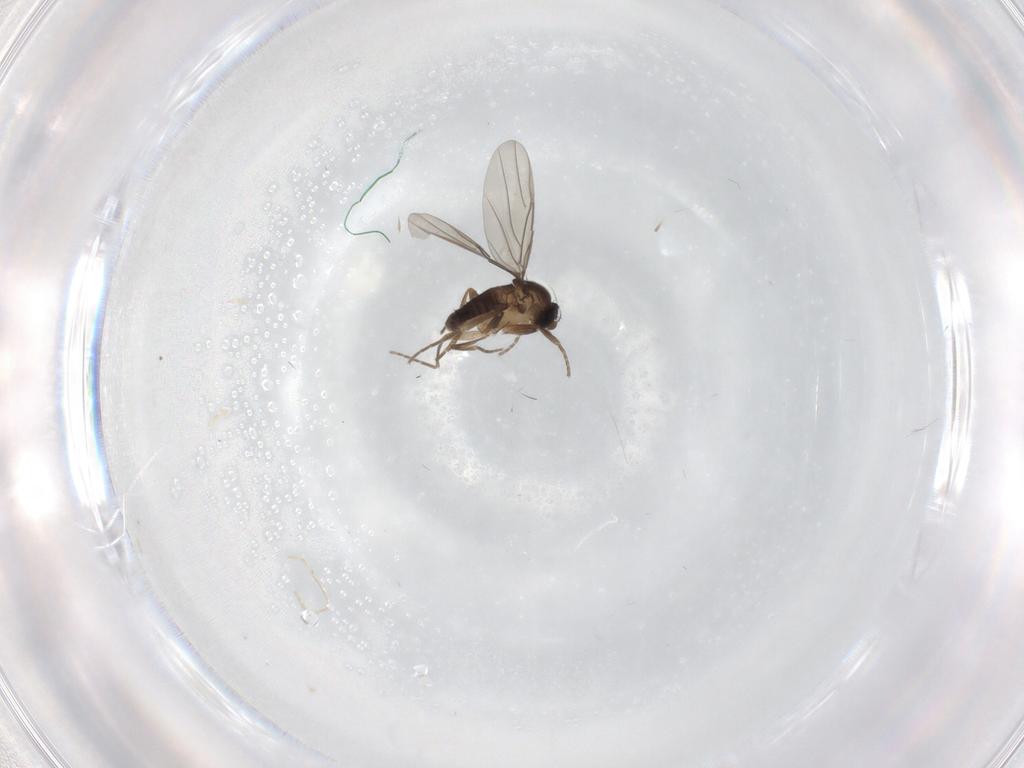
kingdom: Animalia
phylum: Arthropoda
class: Insecta
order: Diptera
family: Phoridae
